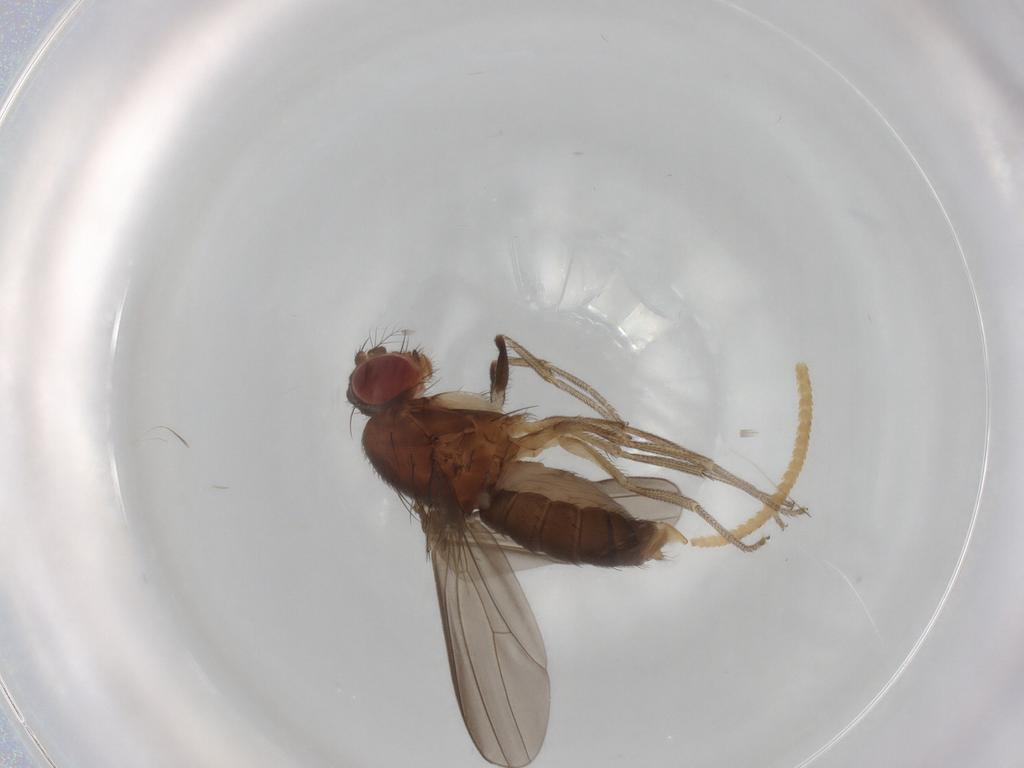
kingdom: Animalia
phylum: Arthropoda
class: Insecta
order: Diptera
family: Drosophilidae
